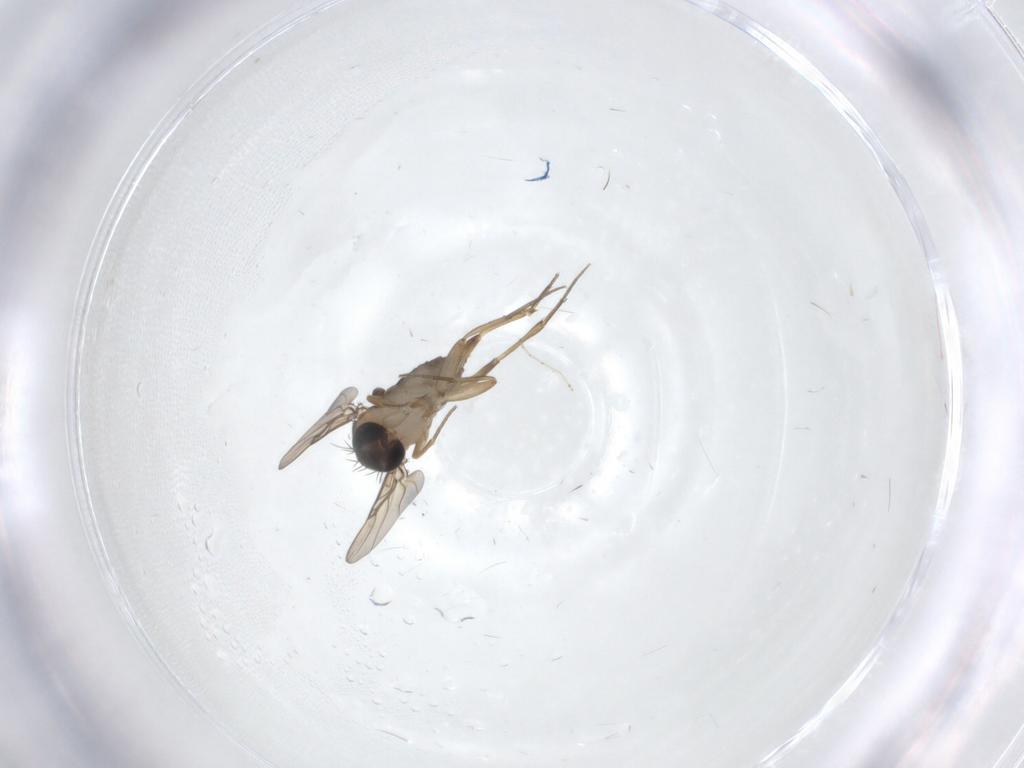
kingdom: Animalia
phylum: Arthropoda
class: Insecta
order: Diptera
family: Phoridae
